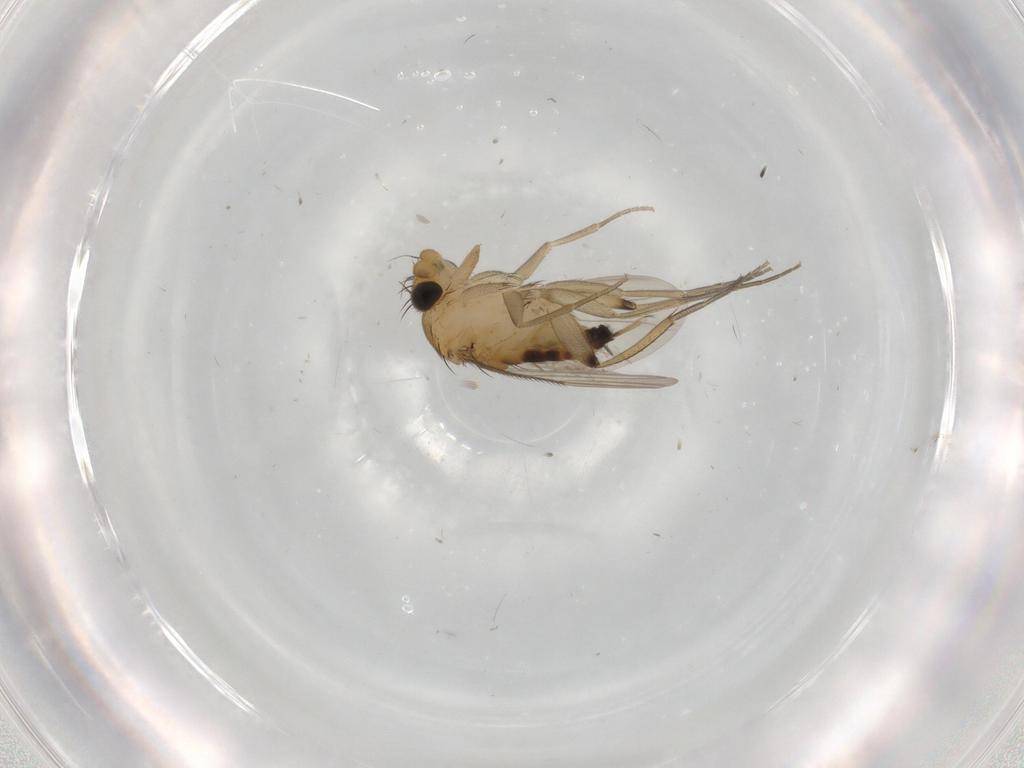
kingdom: Animalia
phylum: Arthropoda
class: Insecta
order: Diptera
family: Phoridae
